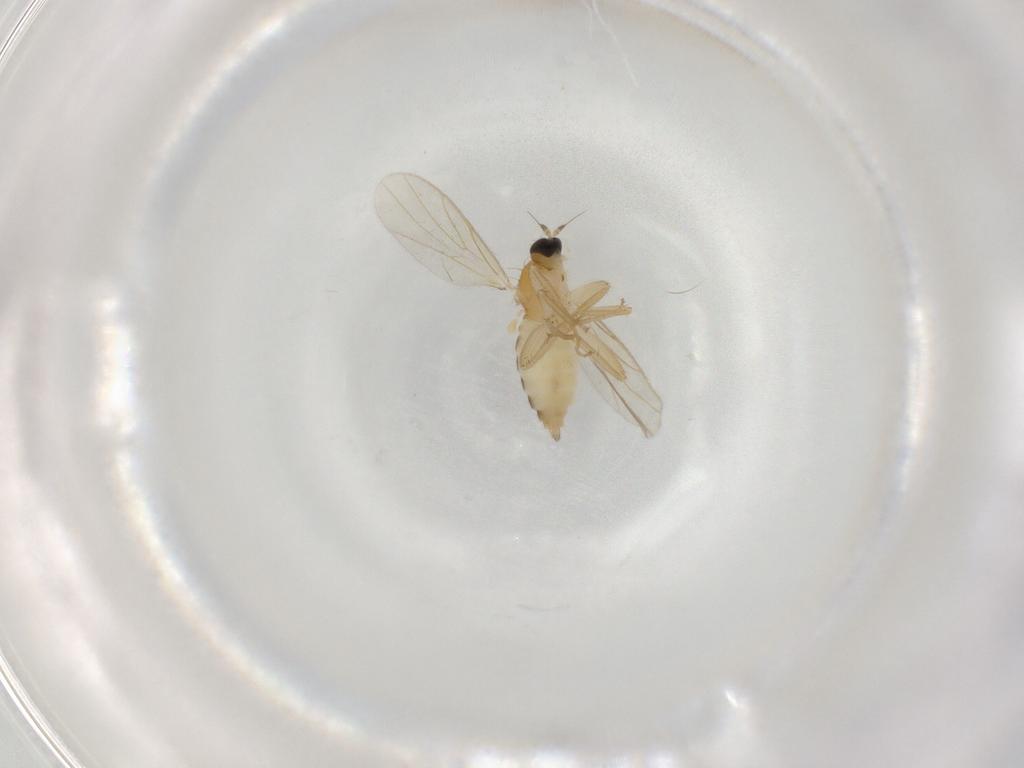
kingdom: Animalia
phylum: Arthropoda
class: Insecta
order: Diptera
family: Hybotidae
